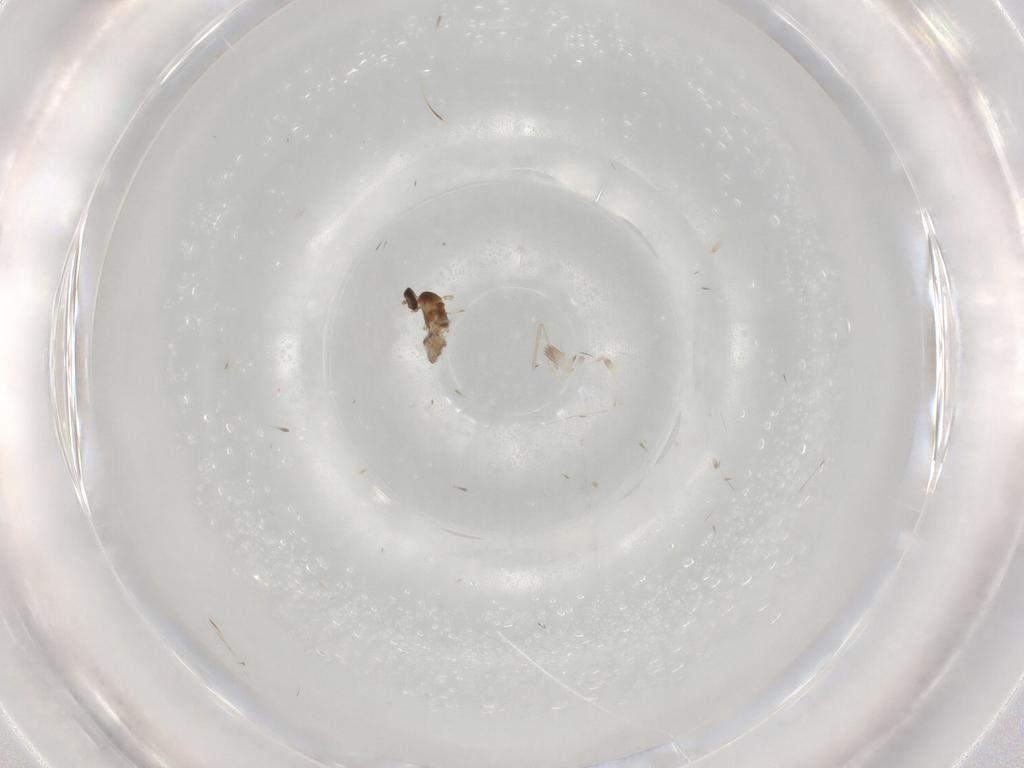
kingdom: Animalia
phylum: Arthropoda
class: Insecta
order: Diptera
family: Cecidomyiidae
